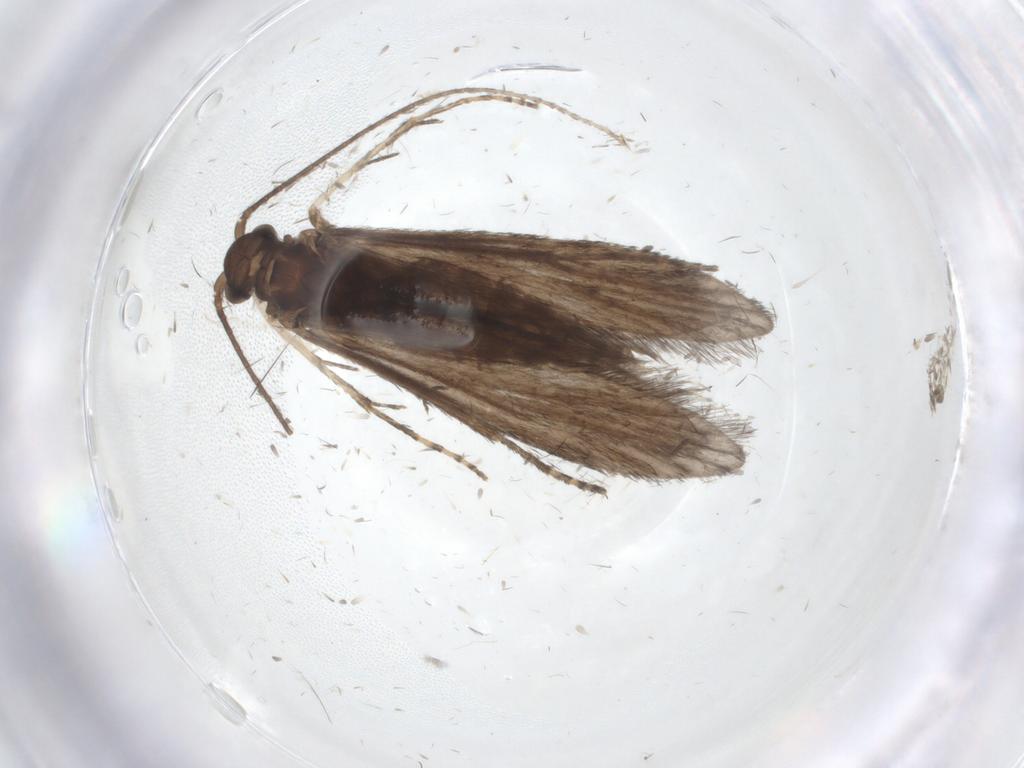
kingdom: Animalia
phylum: Arthropoda
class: Insecta
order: Trichoptera
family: Xiphocentronidae
